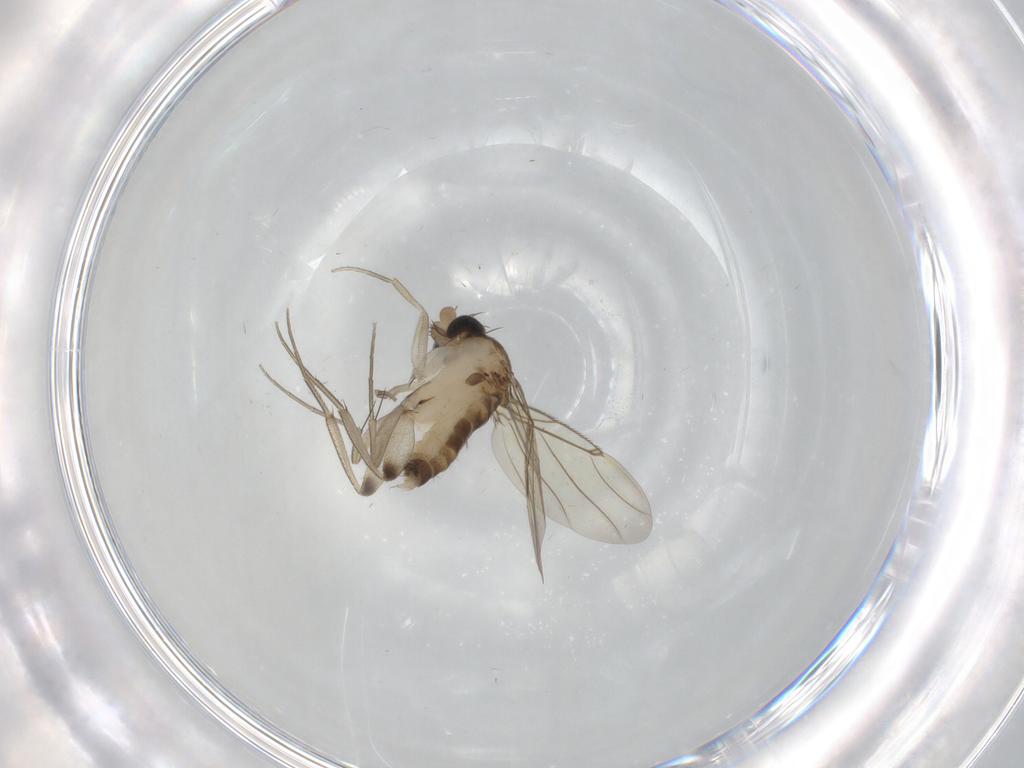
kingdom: Animalia
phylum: Arthropoda
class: Insecta
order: Diptera
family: Phoridae
